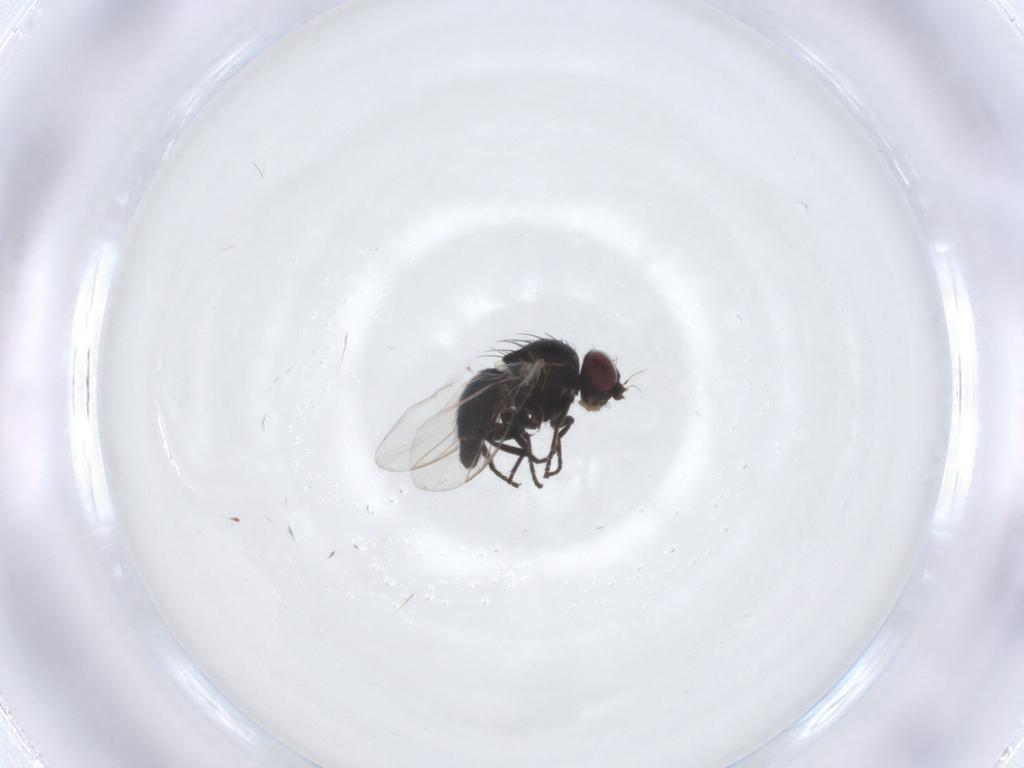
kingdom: Animalia
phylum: Arthropoda
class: Insecta
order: Diptera
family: Agromyzidae
